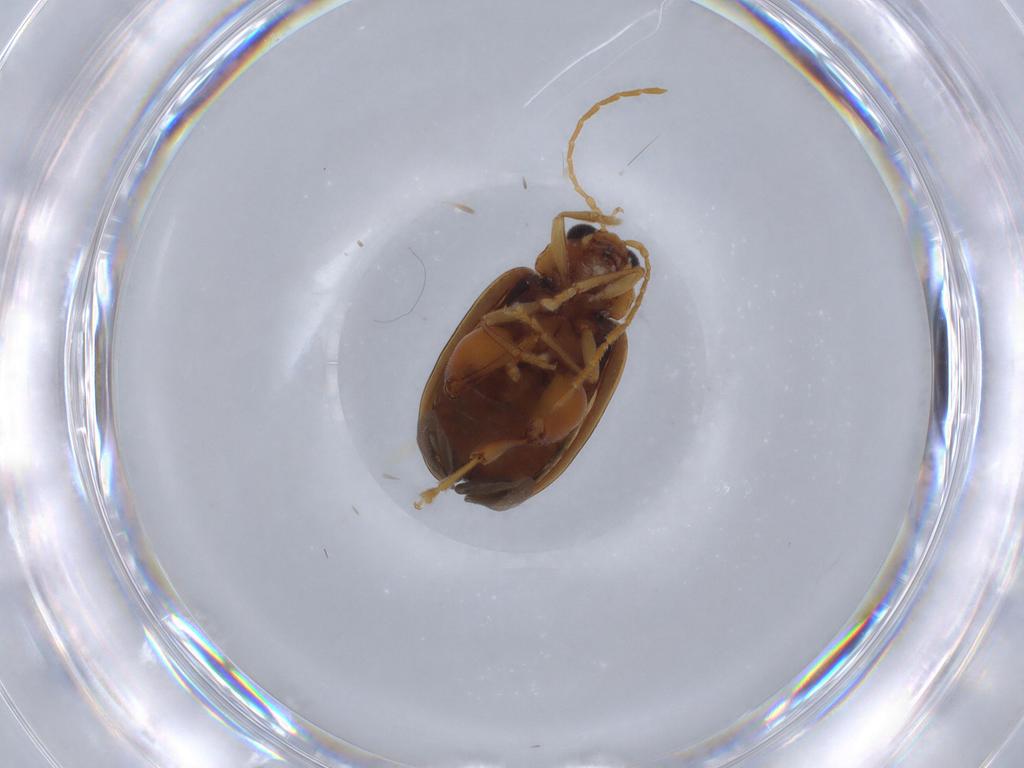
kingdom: Animalia
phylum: Arthropoda
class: Insecta
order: Coleoptera
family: Chrysomelidae
